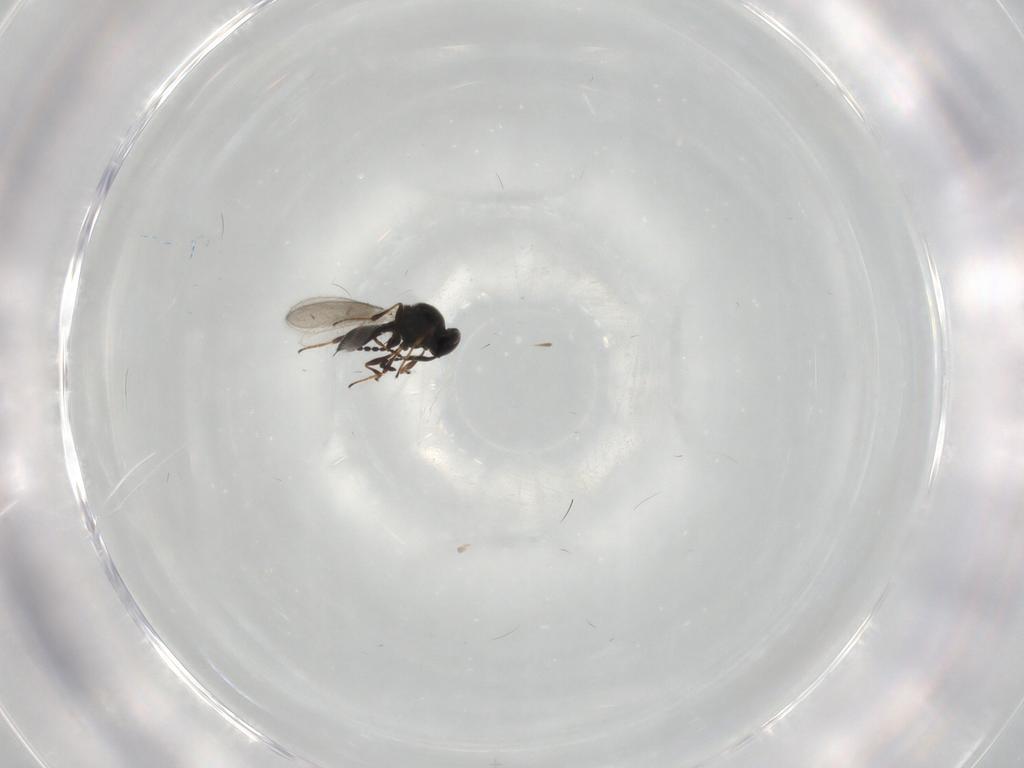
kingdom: Animalia
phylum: Arthropoda
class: Insecta
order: Hymenoptera
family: Platygastridae
